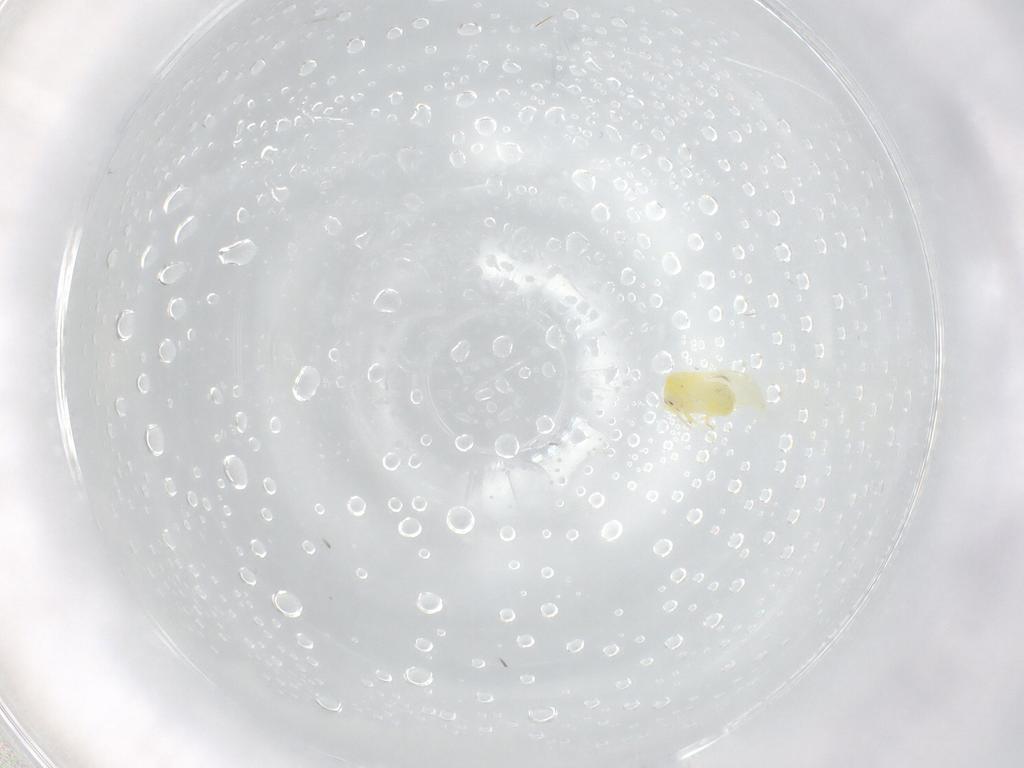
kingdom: Animalia
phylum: Arthropoda
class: Insecta
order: Hemiptera
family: Aleyrodidae
